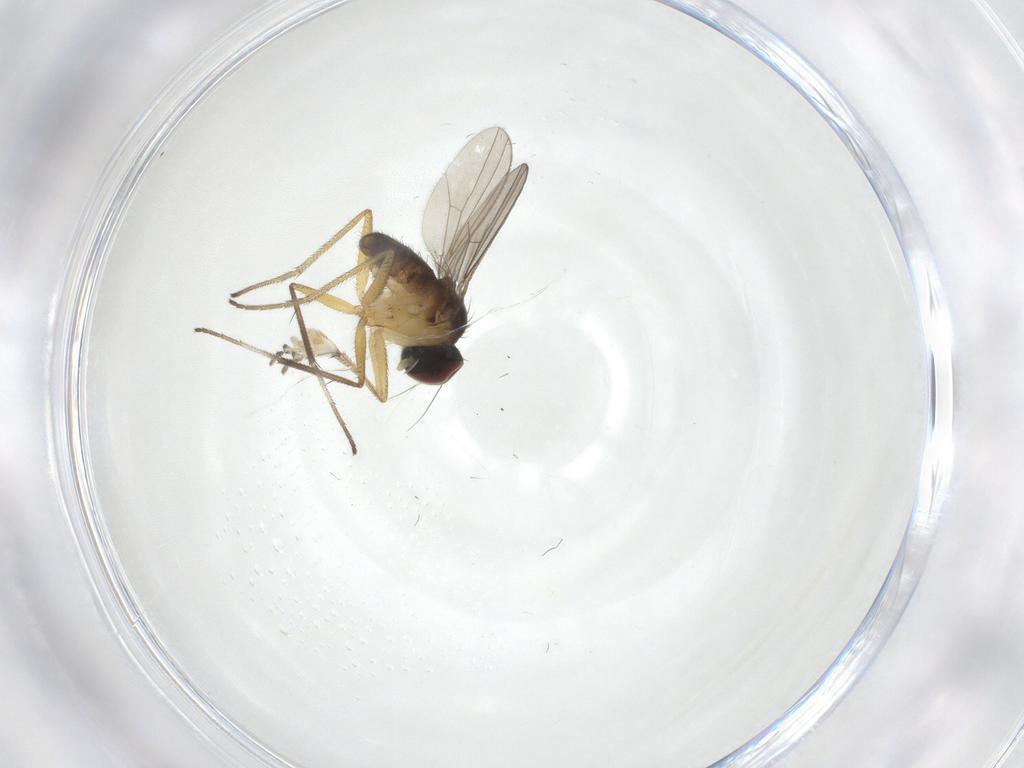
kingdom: Animalia
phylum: Arthropoda
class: Insecta
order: Diptera
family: Dolichopodidae
